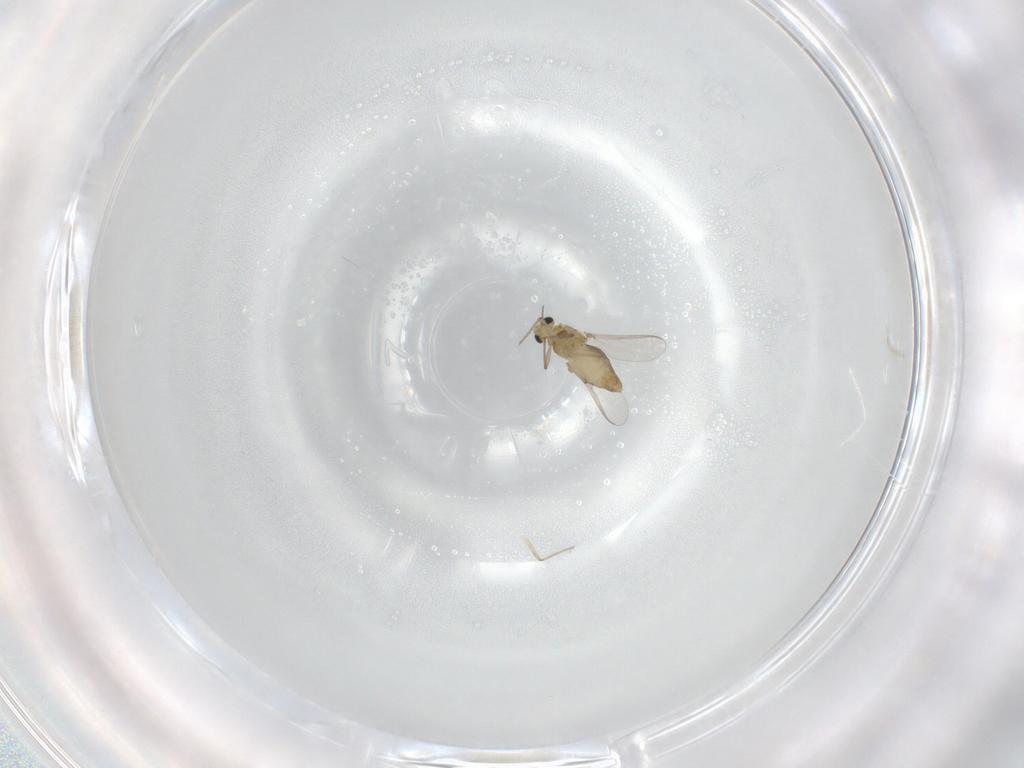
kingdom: Animalia
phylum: Arthropoda
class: Insecta
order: Diptera
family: Chironomidae
